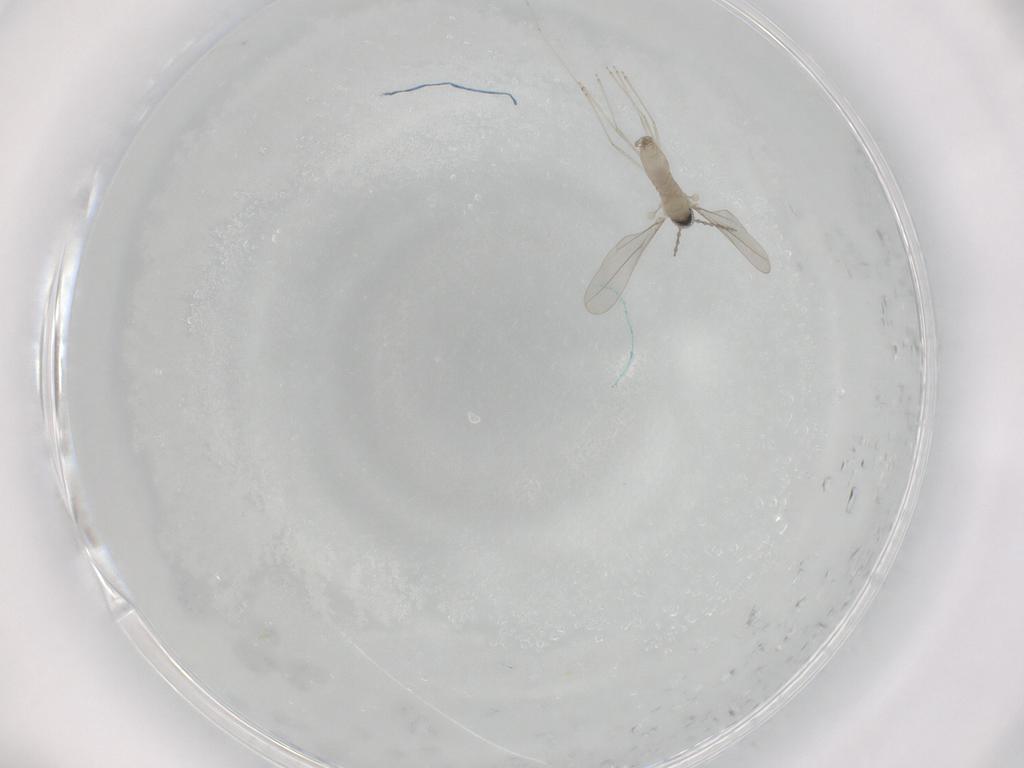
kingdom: Animalia
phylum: Arthropoda
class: Insecta
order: Diptera
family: Cecidomyiidae
